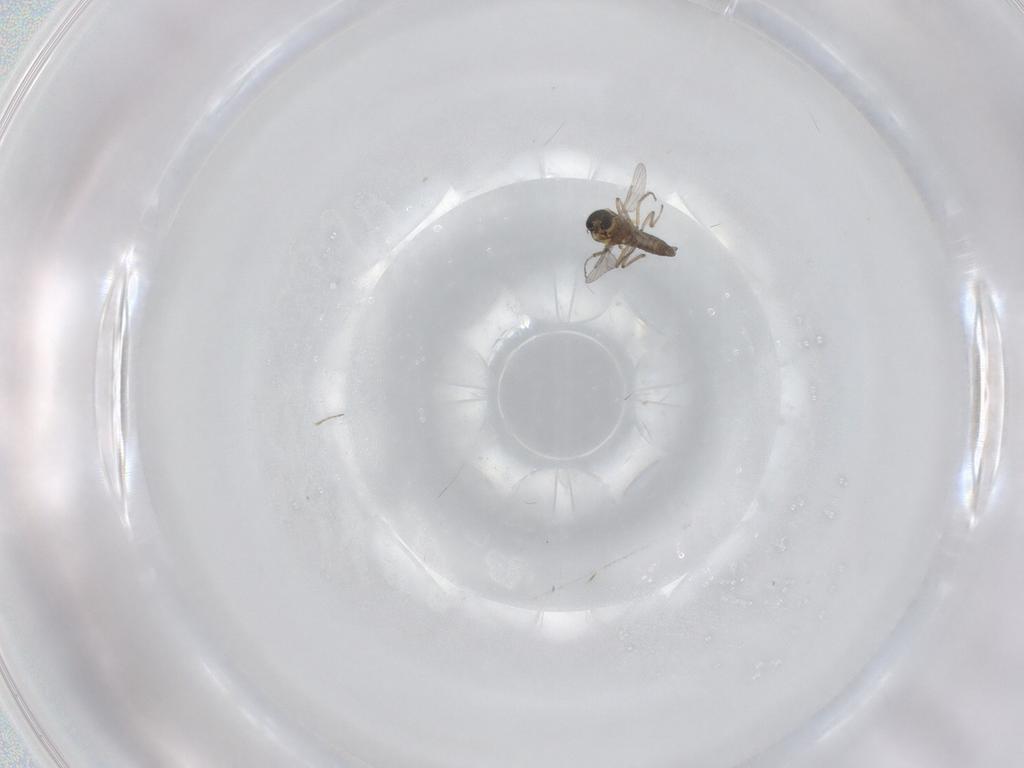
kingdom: Animalia
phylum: Arthropoda
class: Insecta
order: Diptera
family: Ceratopogonidae
